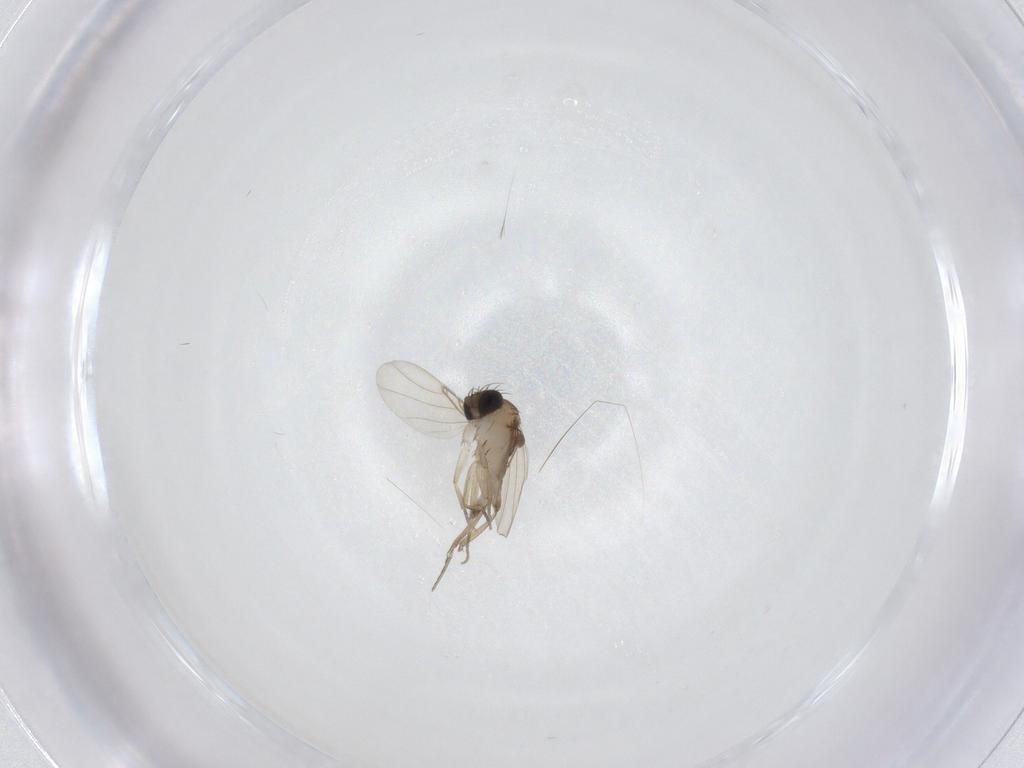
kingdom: Animalia
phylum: Arthropoda
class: Insecta
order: Diptera
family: Phoridae
